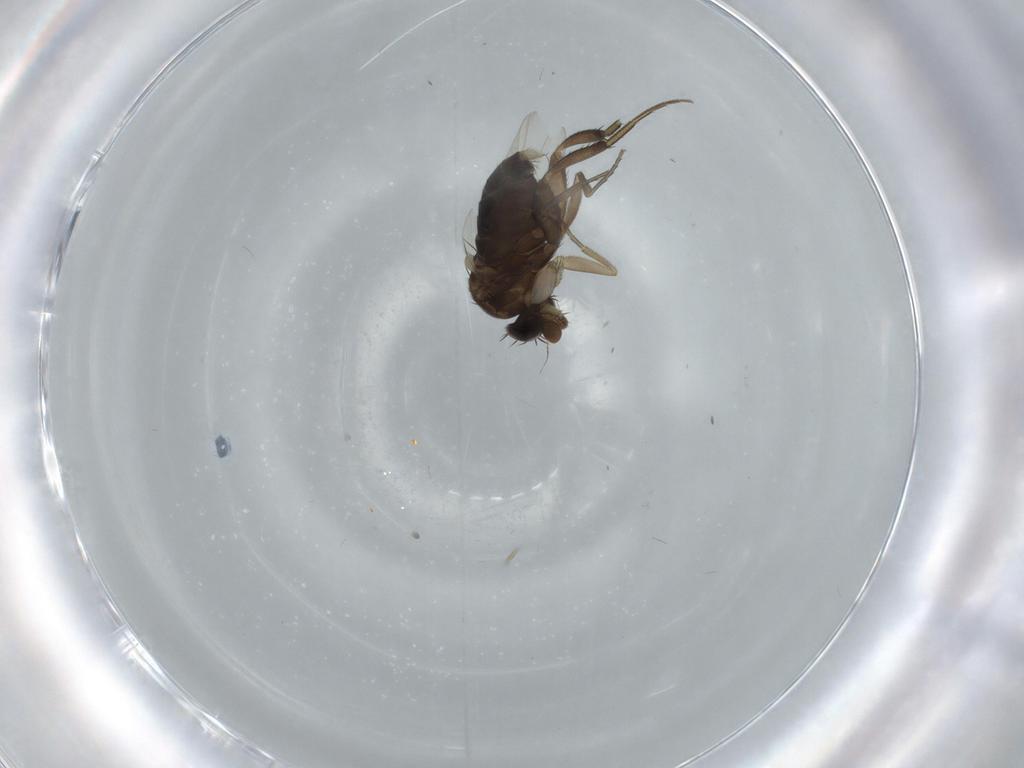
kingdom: Animalia
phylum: Arthropoda
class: Insecta
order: Diptera
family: Phoridae
